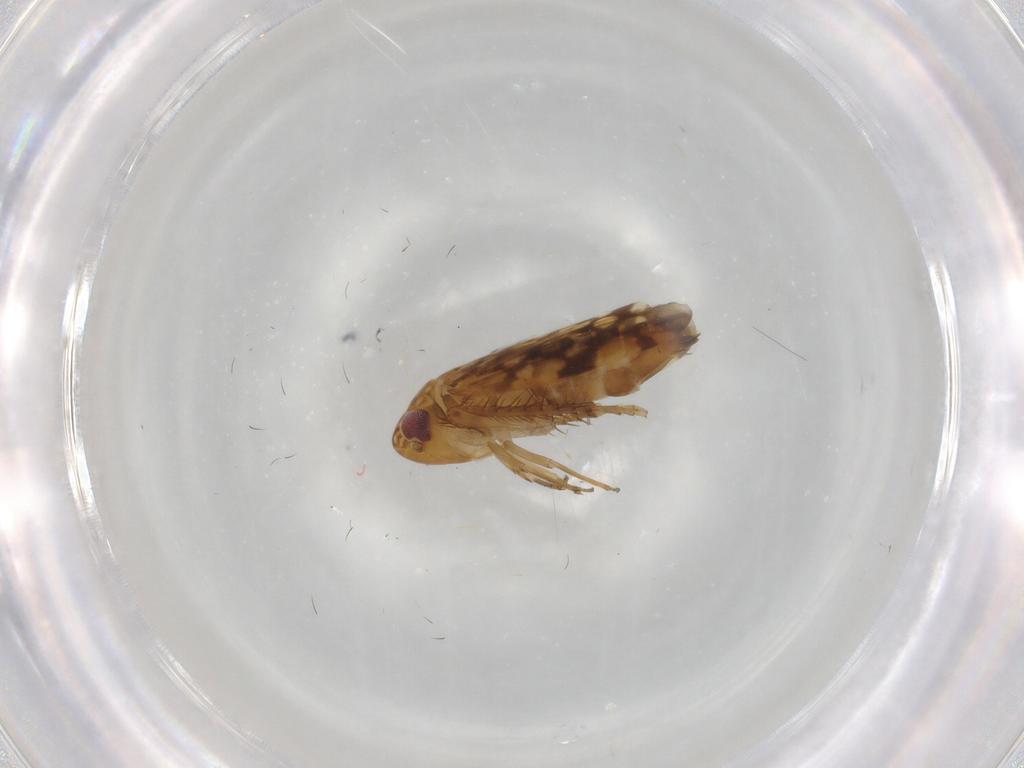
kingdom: Animalia
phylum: Arthropoda
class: Insecta
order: Hemiptera
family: Cicadellidae
